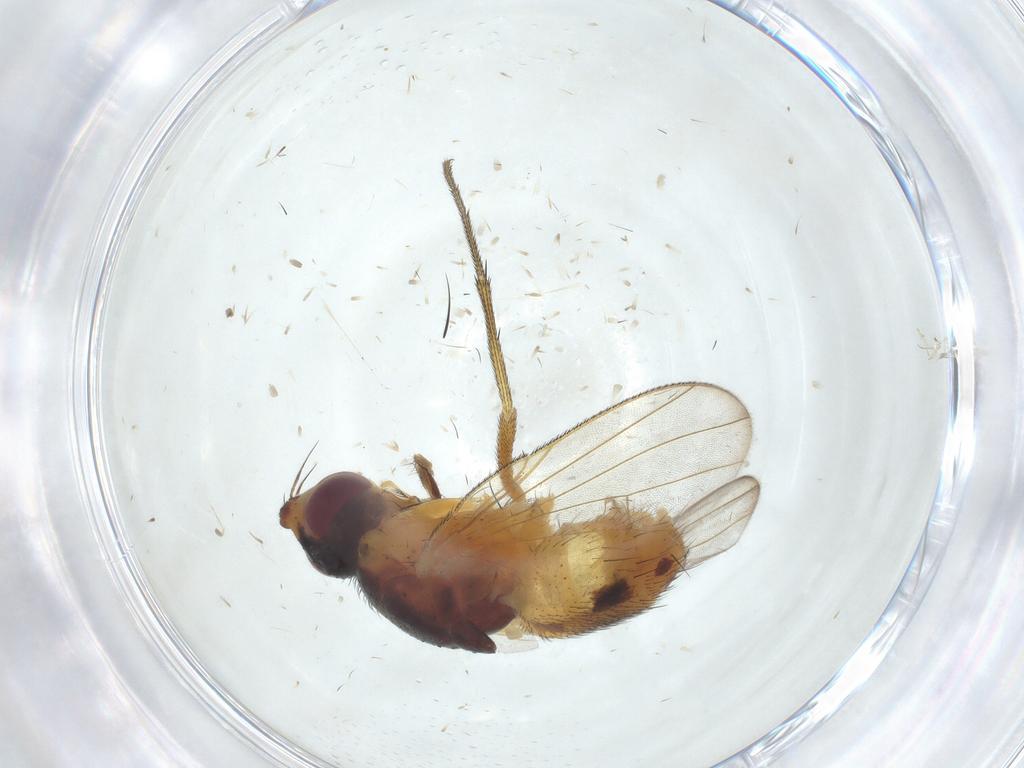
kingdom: Animalia
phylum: Arthropoda
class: Insecta
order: Diptera
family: Muscidae
